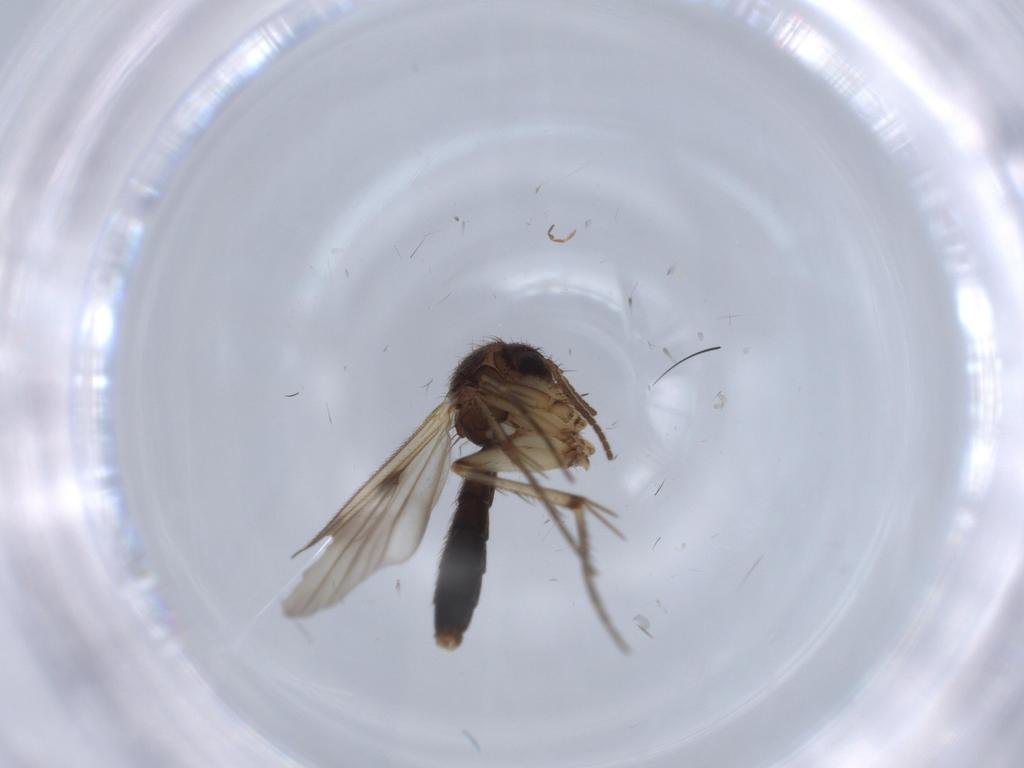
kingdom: Animalia
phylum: Arthropoda
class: Insecta
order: Diptera
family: Mycetophilidae
